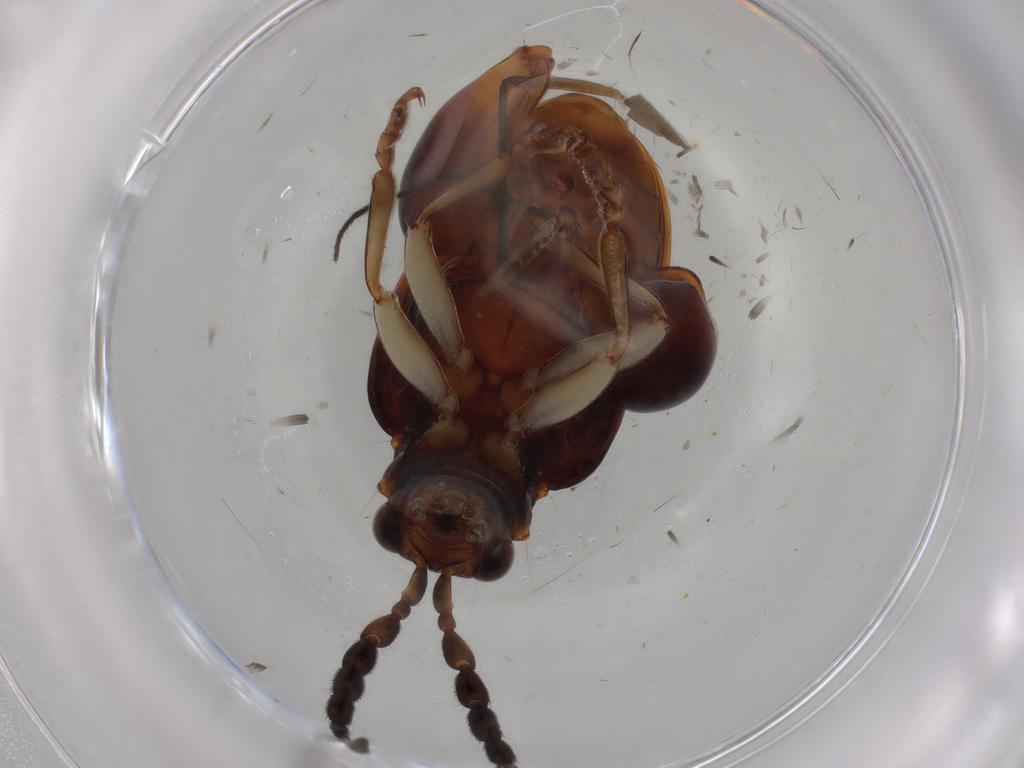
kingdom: Animalia
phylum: Arthropoda
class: Insecta
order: Coleoptera
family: Chrysomelidae
